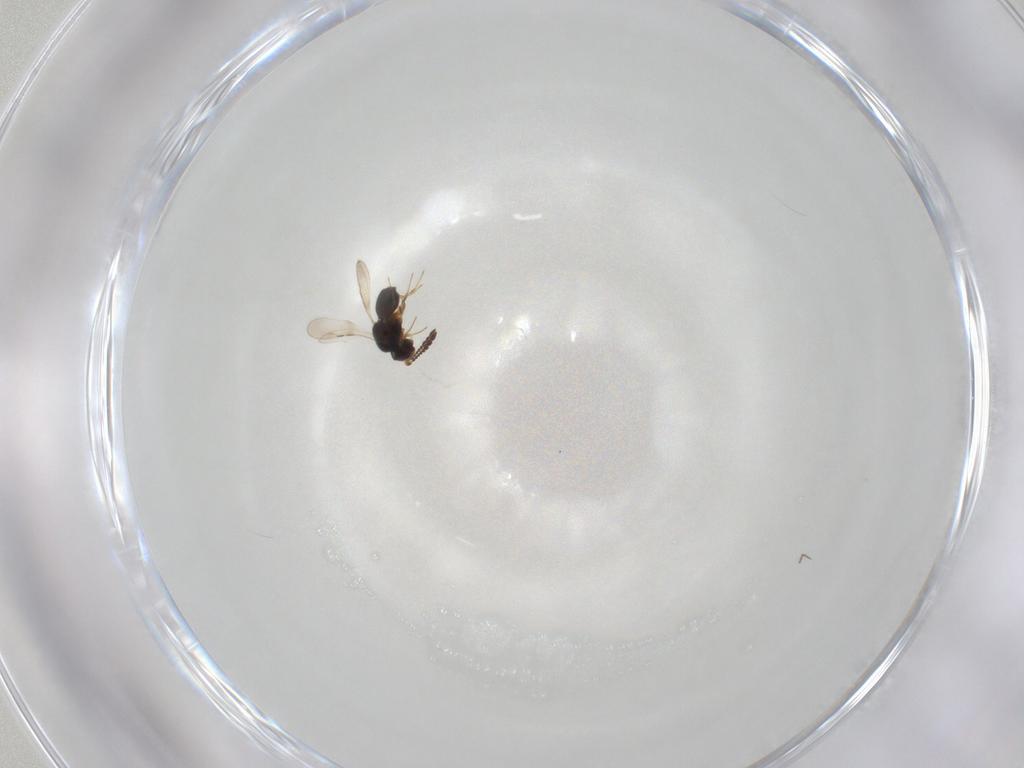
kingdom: Animalia
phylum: Arthropoda
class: Insecta
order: Hymenoptera
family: Ceraphronidae
